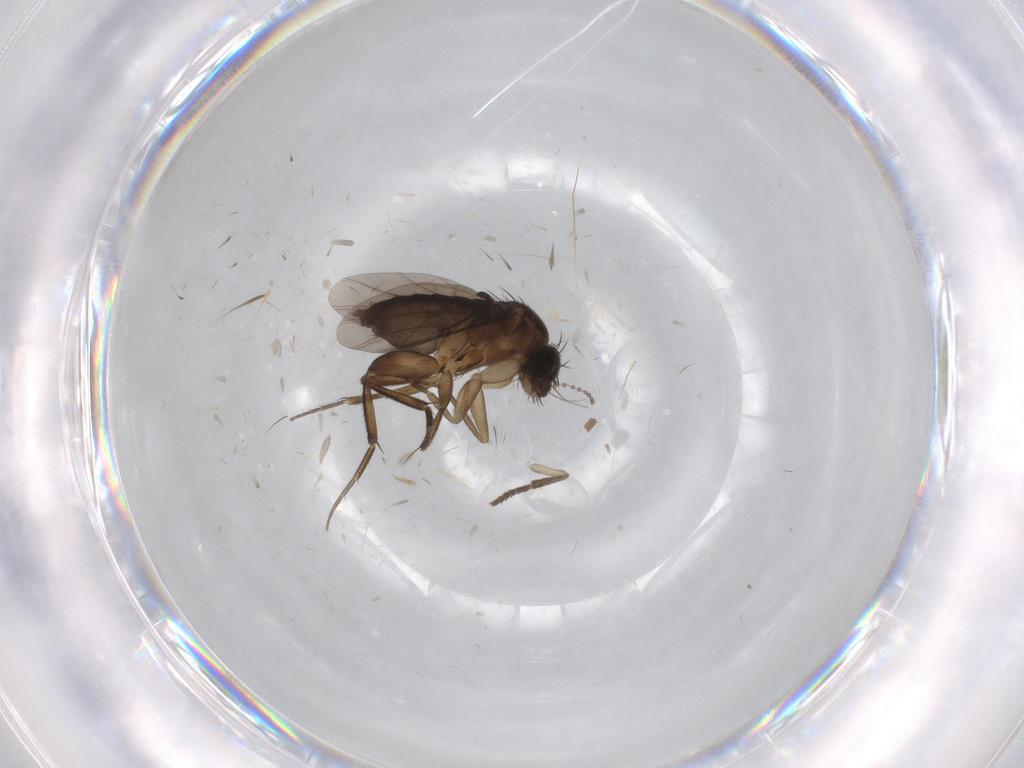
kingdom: Animalia
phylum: Arthropoda
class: Insecta
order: Diptera
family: Psychodidae
